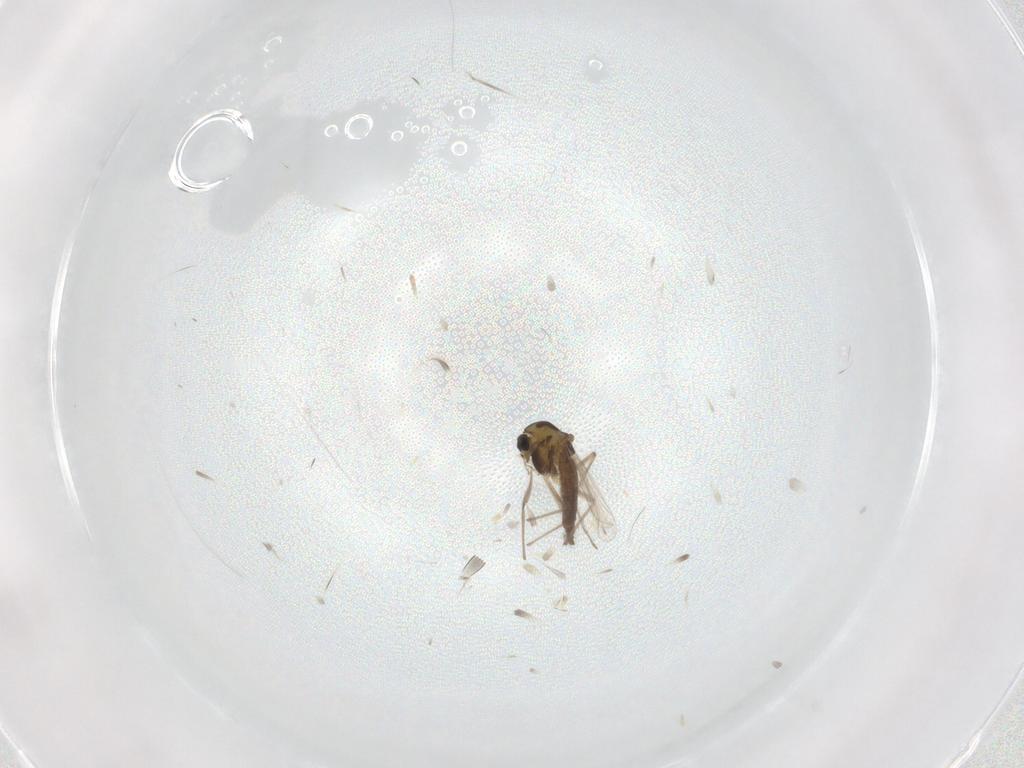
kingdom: Animalia
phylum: Arthropoda
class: Insecta
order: Diptera
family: Chironomidae
